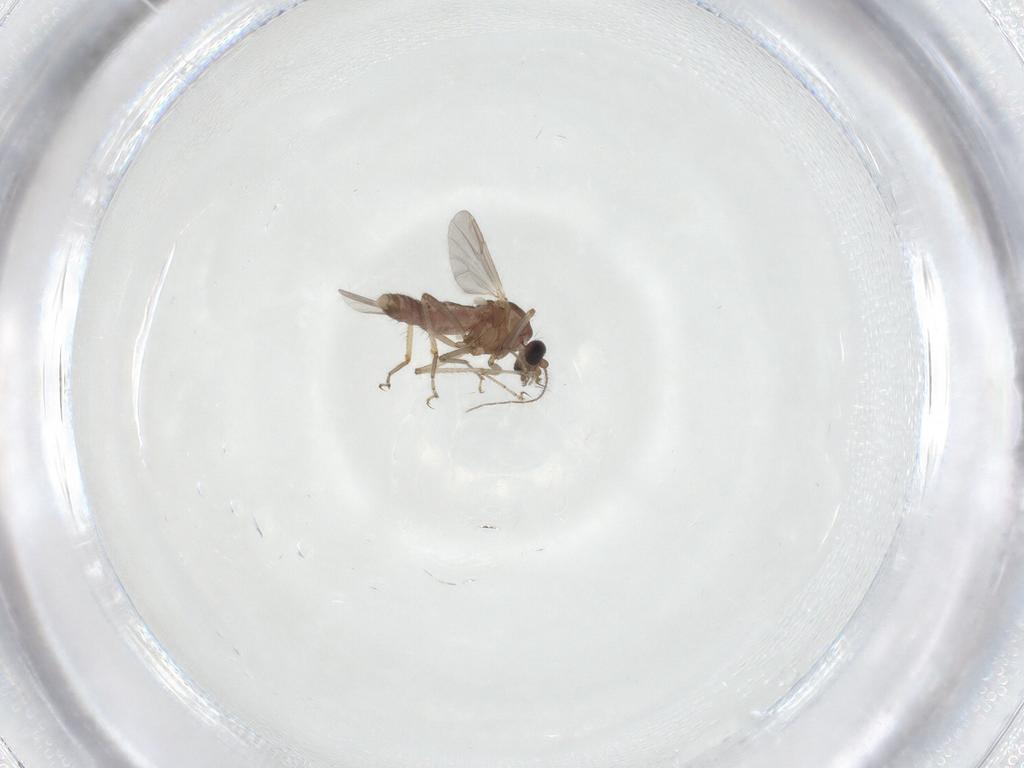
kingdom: Animalia
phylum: Arthropoda
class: Insecta
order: Diptera
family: Ceratopogonidae
